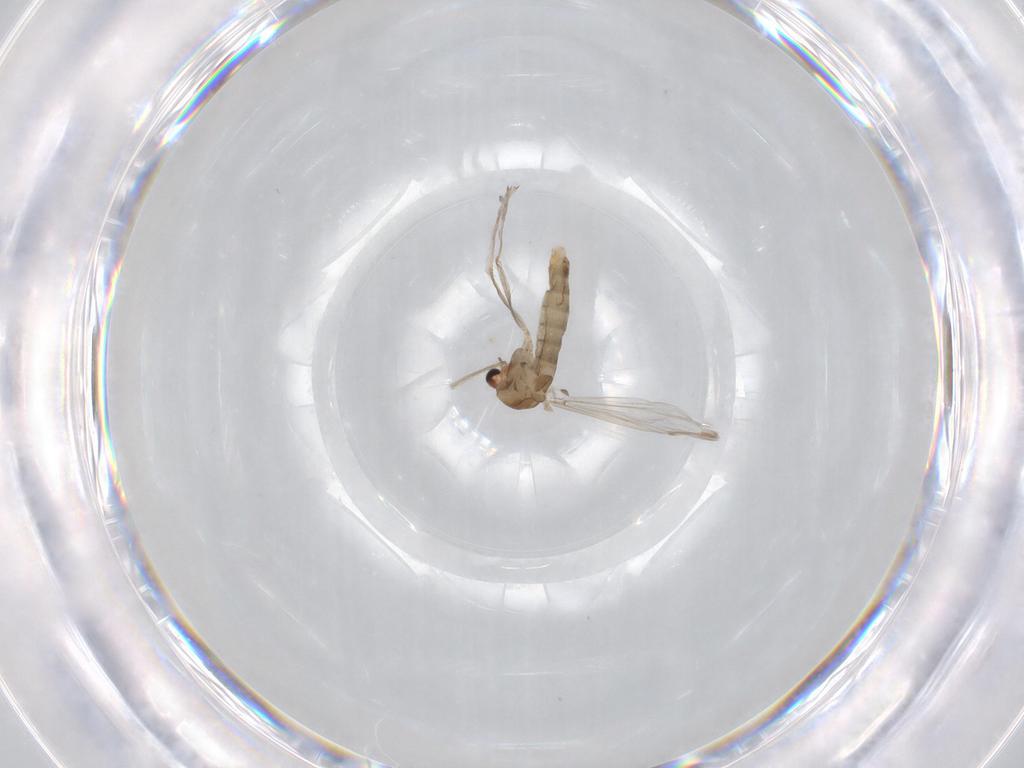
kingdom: Animalia
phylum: Arthropoda
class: Insecta
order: Diptera
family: Chironomidae
